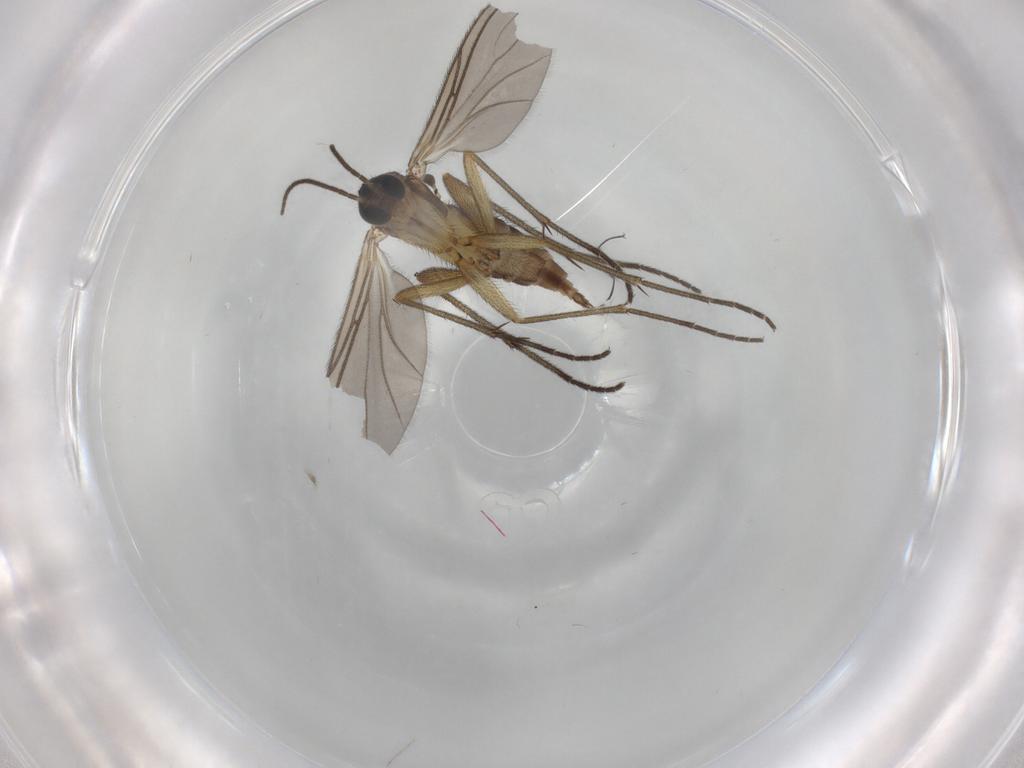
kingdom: Animalia
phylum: Arthropoda
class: Insecta
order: Diptera
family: Sciaridae
